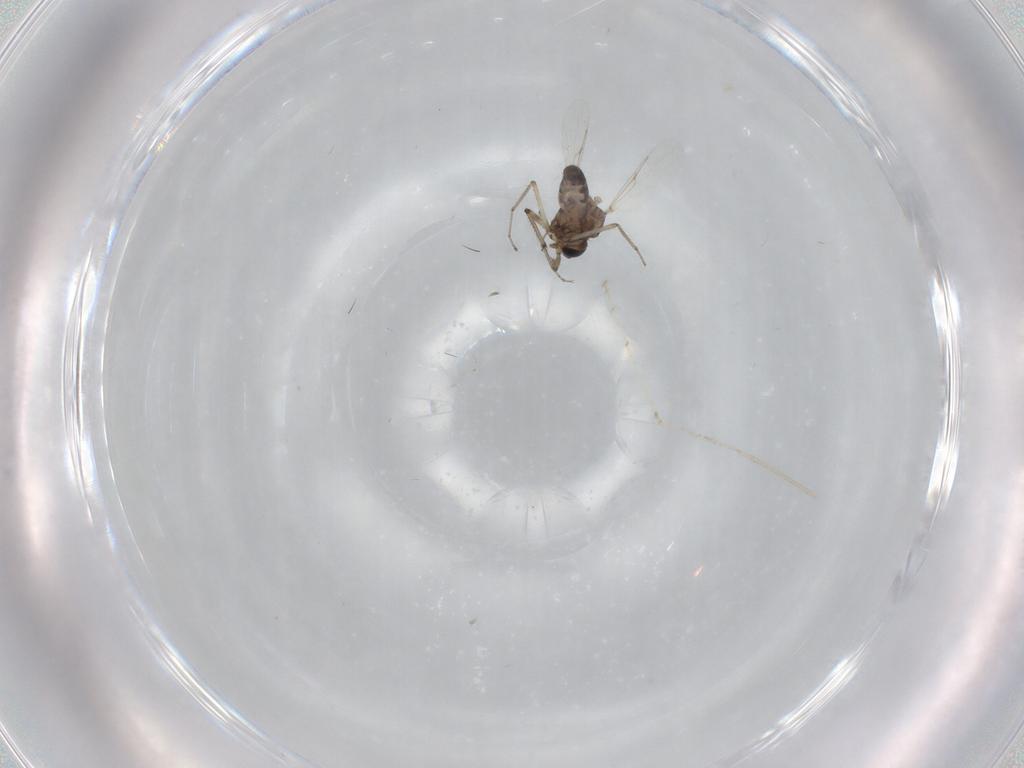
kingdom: Animalia
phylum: Arthropoda
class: Insecta
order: Diptera
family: Ceratopogonidae
